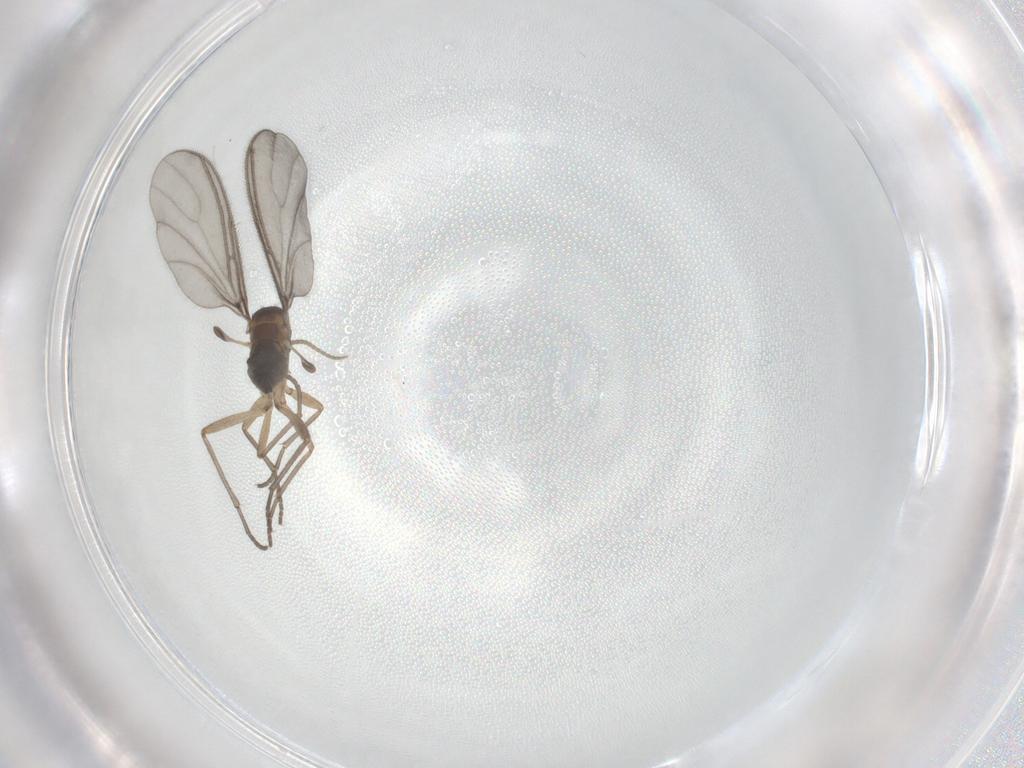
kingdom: Animalia
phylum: Arthropoda
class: Insecta
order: Diptera
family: Sciaridae
